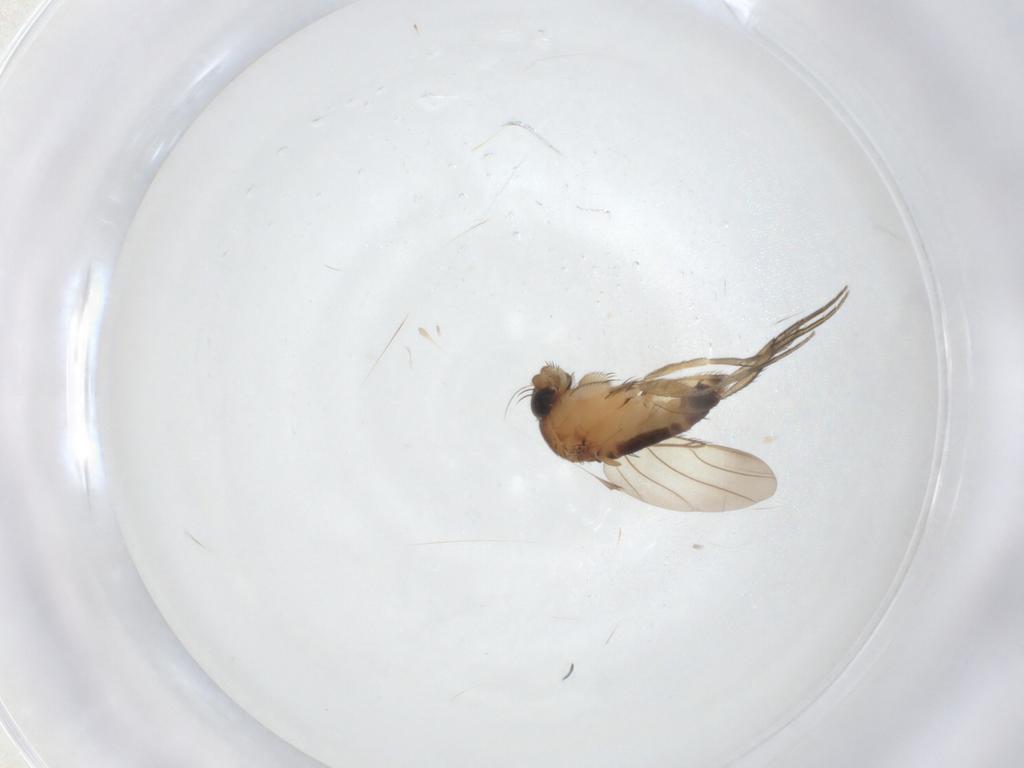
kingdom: Animalia
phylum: Arthropoda
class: Insecta
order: Diptera
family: Phoridae
